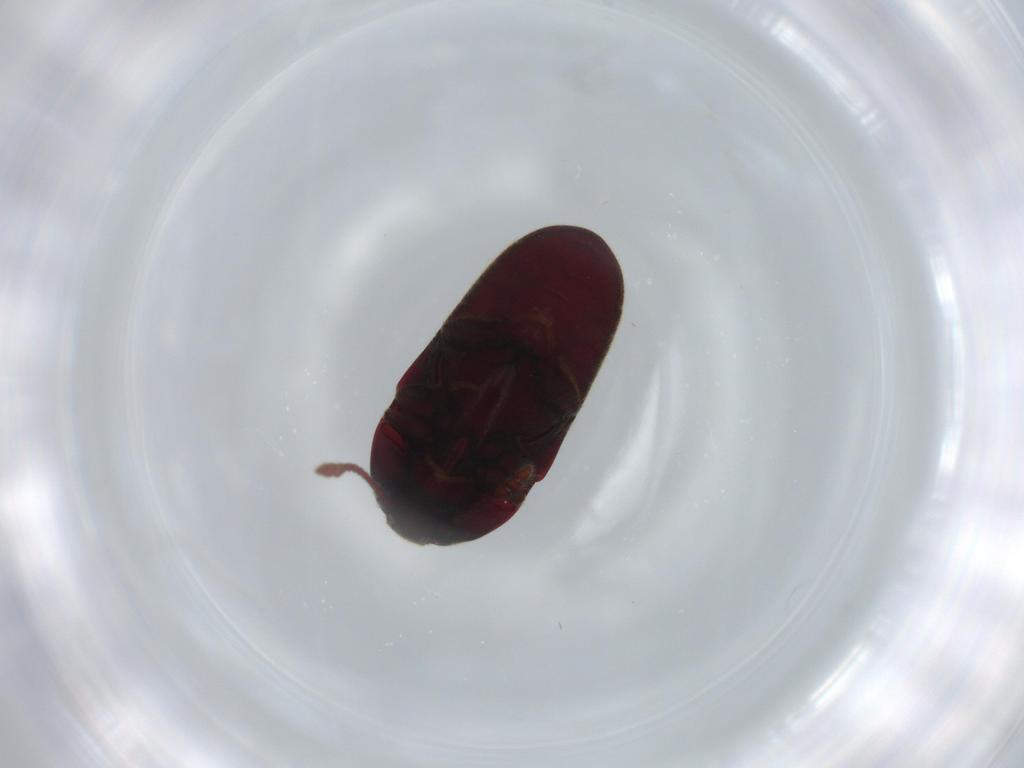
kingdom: Animalia
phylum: Arthropoda
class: Insecta
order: Coleoptera
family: Throscidae
